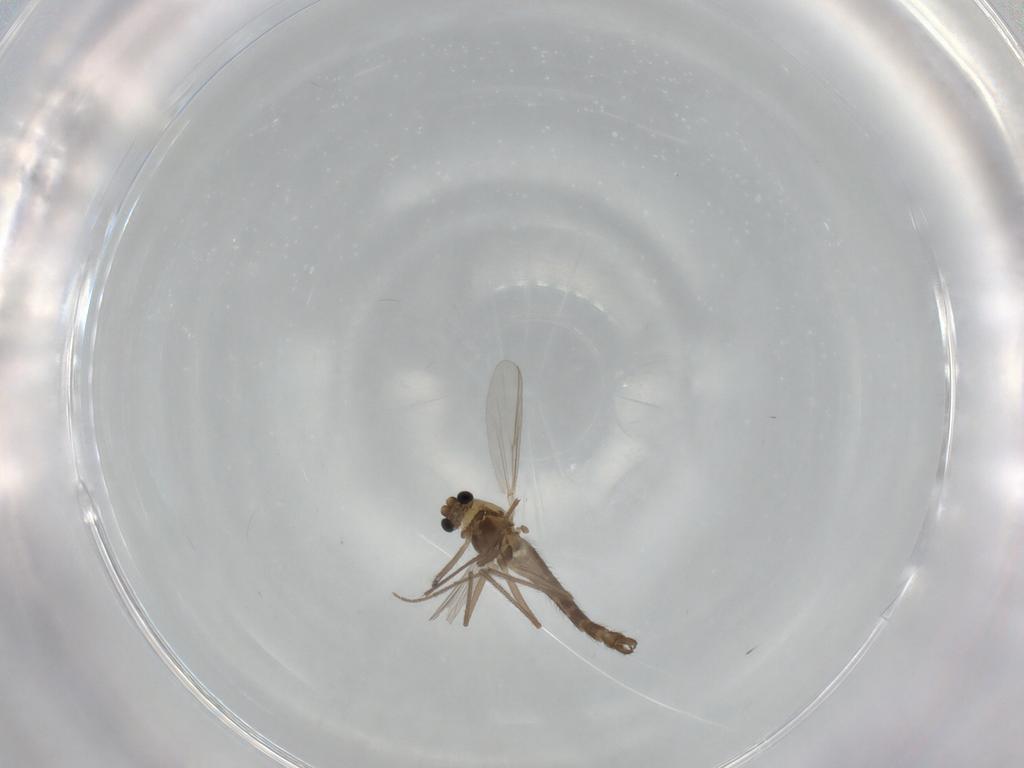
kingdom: Animalia
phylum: Arthropoda
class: Insecta
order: Diptera
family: Chironomidae
